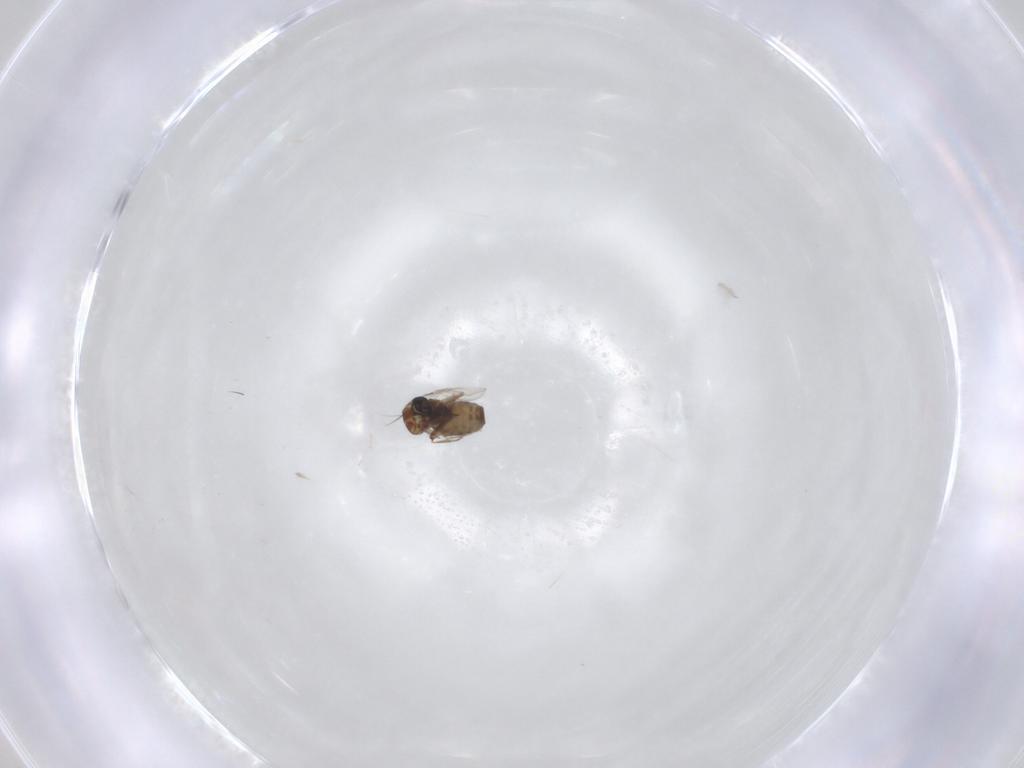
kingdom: Animalia
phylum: Arthropoda
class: Insecta
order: Diptera
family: Ceratopogonidae
